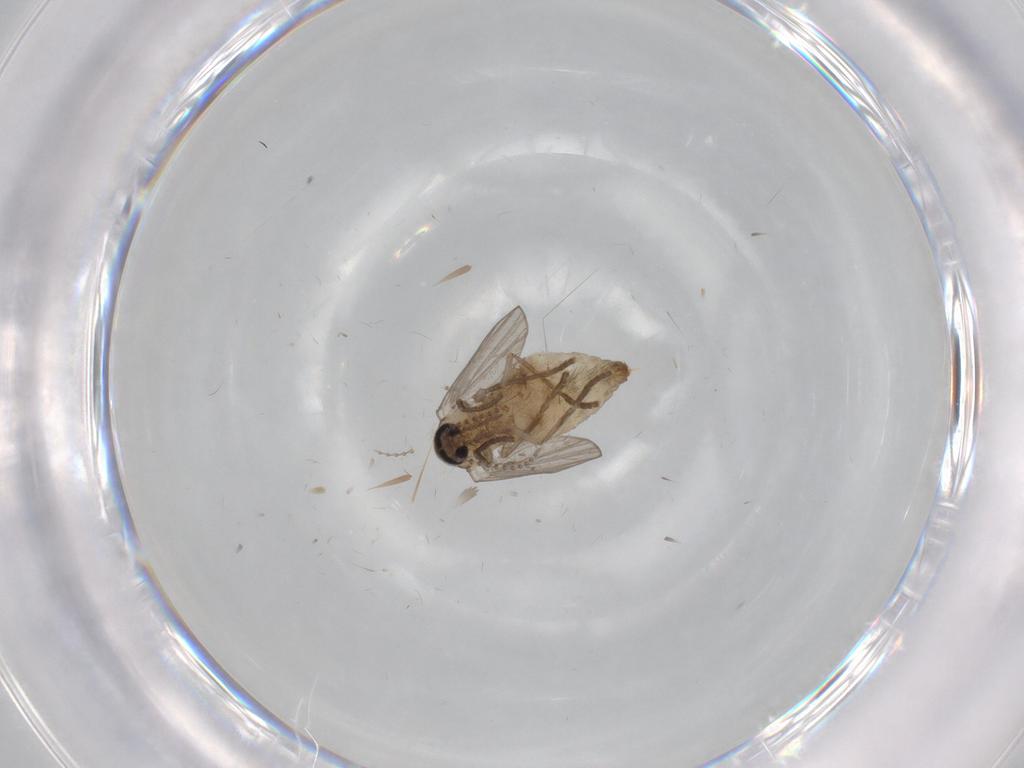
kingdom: Animalia
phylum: Arthropoda
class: Insecta
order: Diptera
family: Psychodidae
